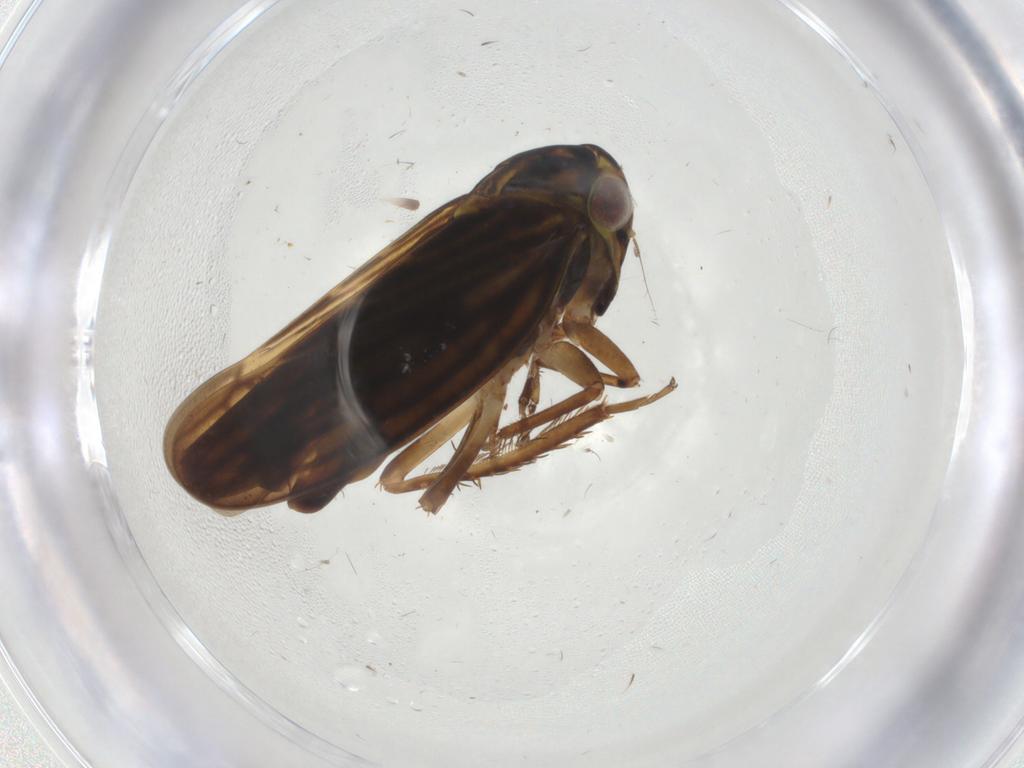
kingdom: Animalia
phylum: Arthropoda
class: Insecta
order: Hemiptera
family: Cicadellidae
